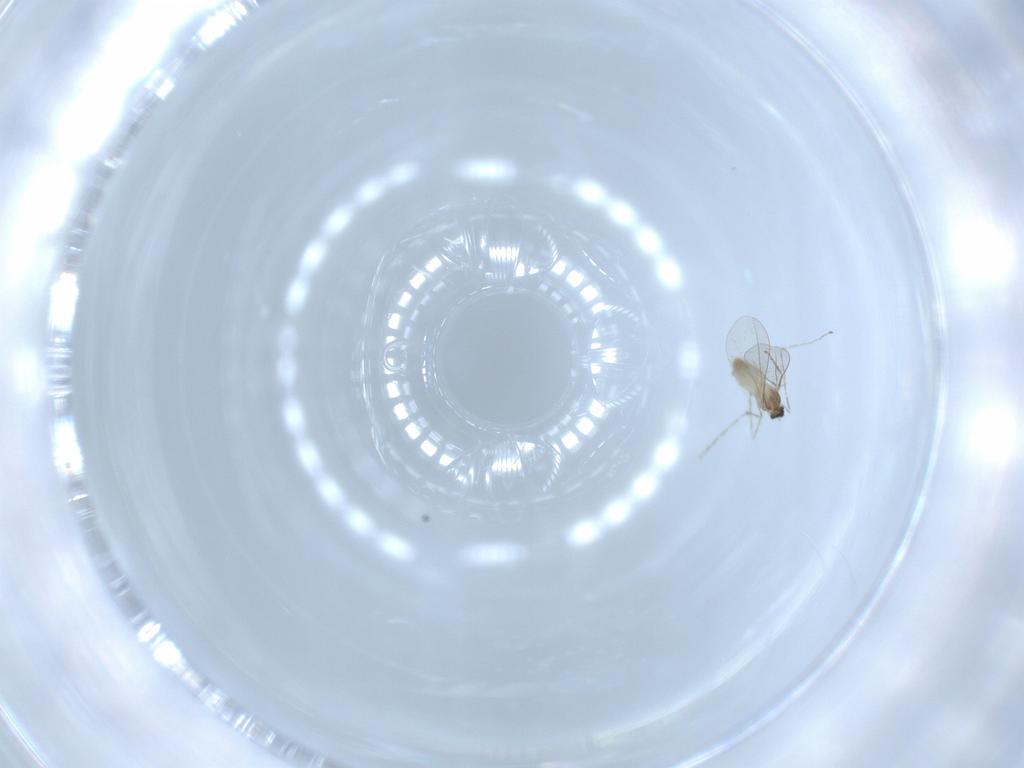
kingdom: Animalia
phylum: Arthropoda
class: Insecta
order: Diptera
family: Cecidomyiidae
